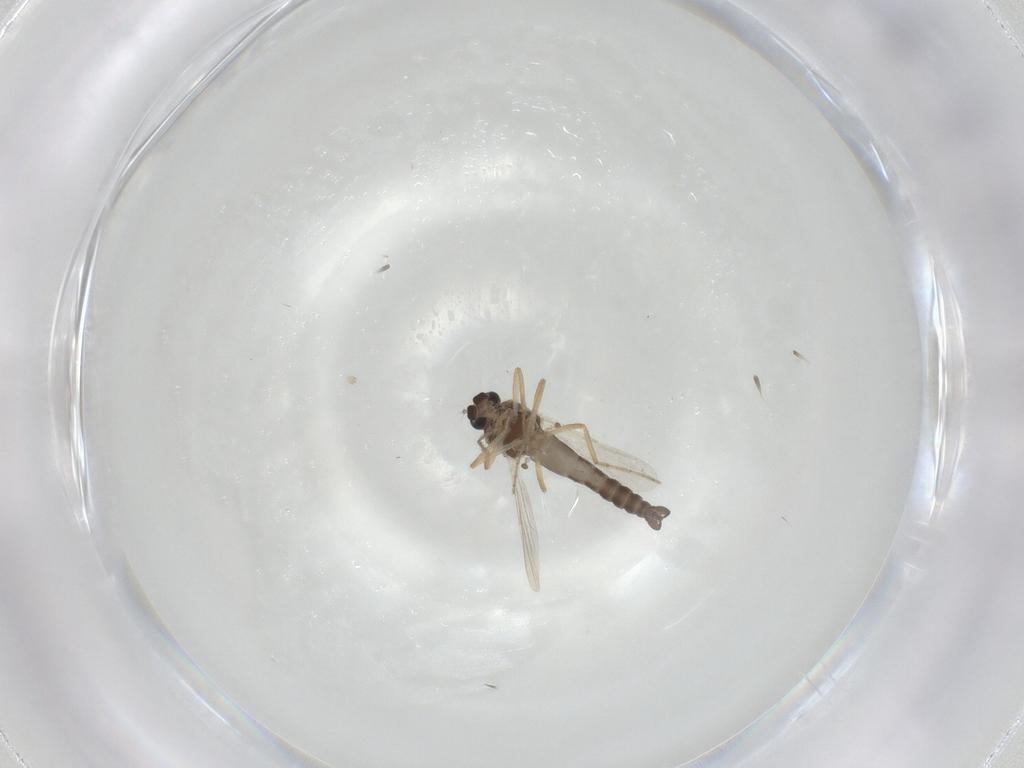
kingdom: Animalia
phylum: Arthropoda
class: Insecta
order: Diptera
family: Ceratopogonidae
